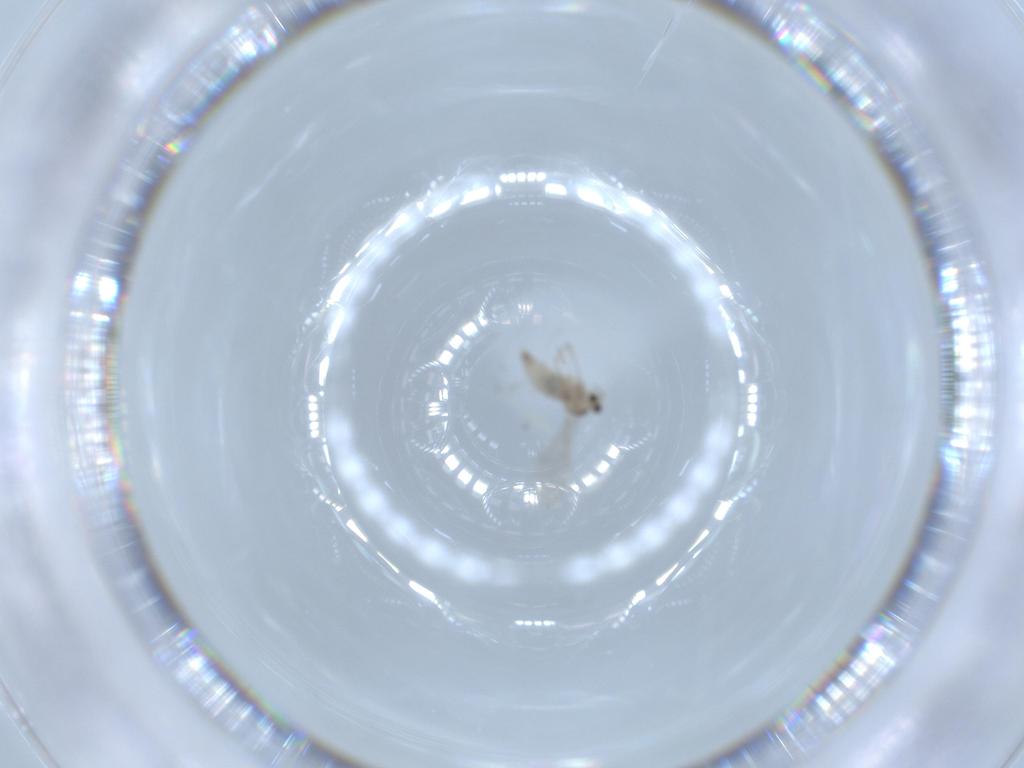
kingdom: Animalia
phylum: Arthropoda
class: Insecta
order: Diptera
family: Cecidomyiidae
